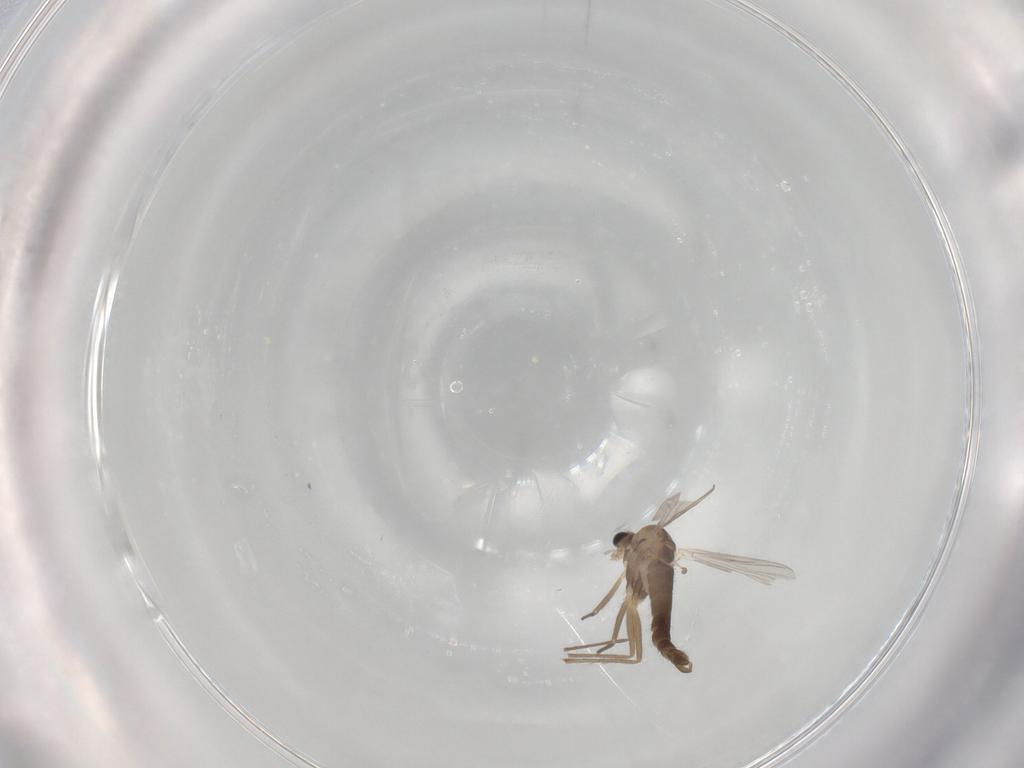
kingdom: Animalia
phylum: Arthropoda
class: Insecta
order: Diptera
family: Chironomidae
